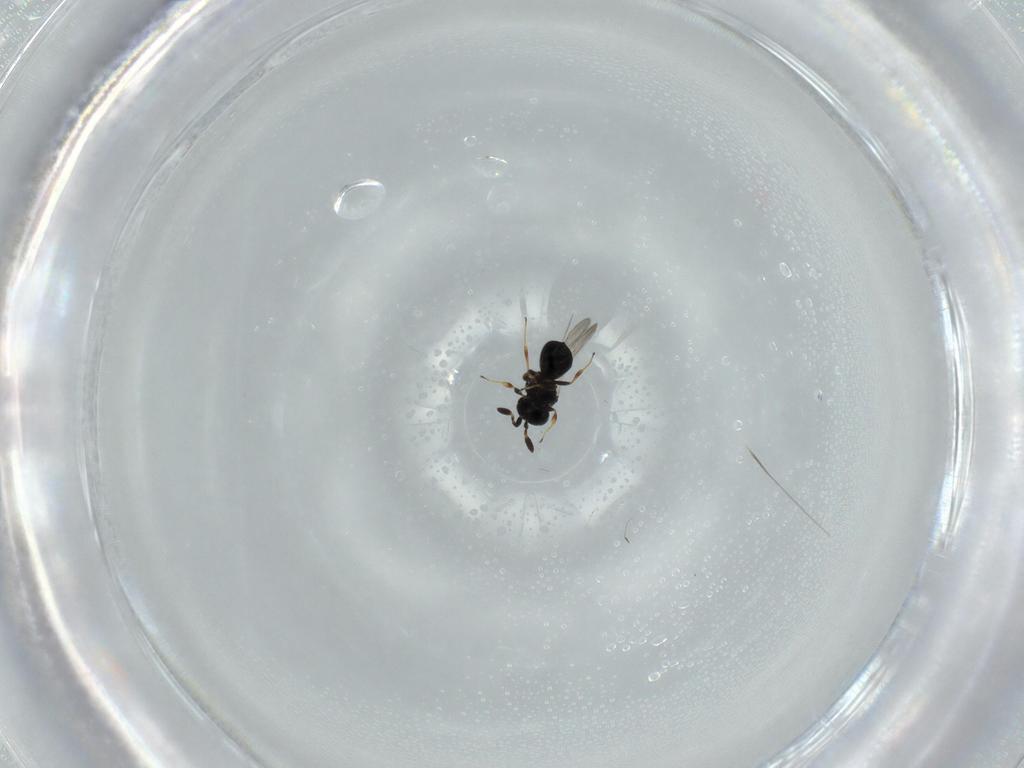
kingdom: Animalia
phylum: Arthropoda
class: Insecta
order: Hymenoptera
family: Scelionidae
